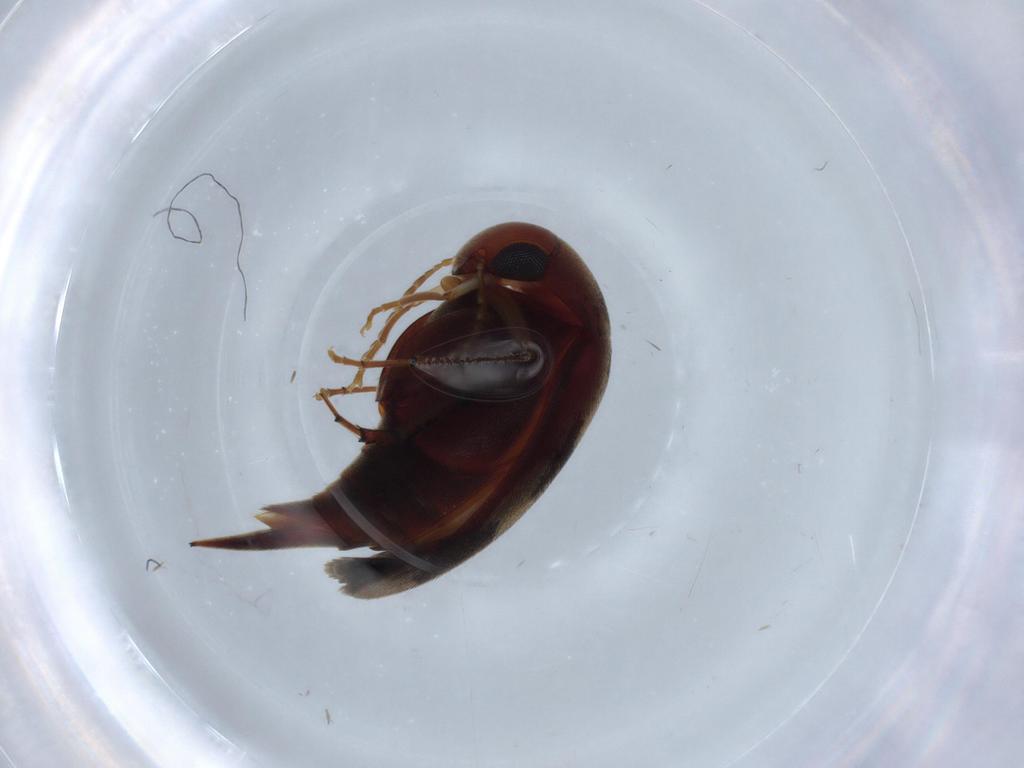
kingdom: Animalia
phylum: Arthropoda
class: Insecta
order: Coleoptera
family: Coccinellidae
